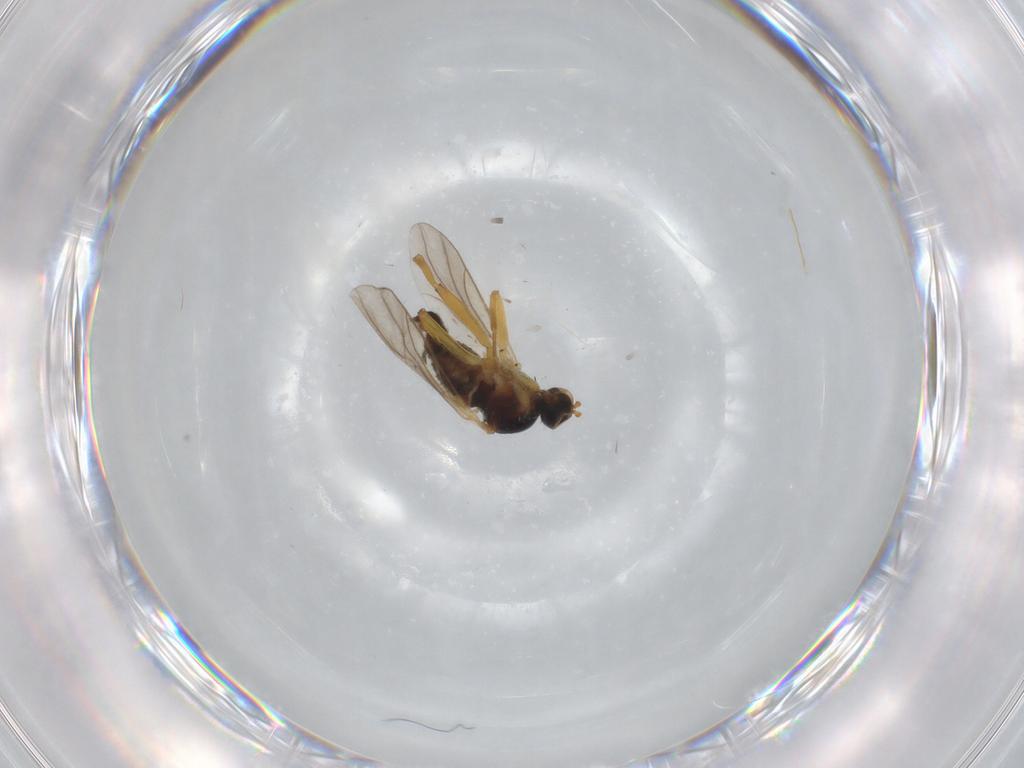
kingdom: Animalia
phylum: Arthropoda
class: Insecta
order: Diptera
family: Hybotidae
